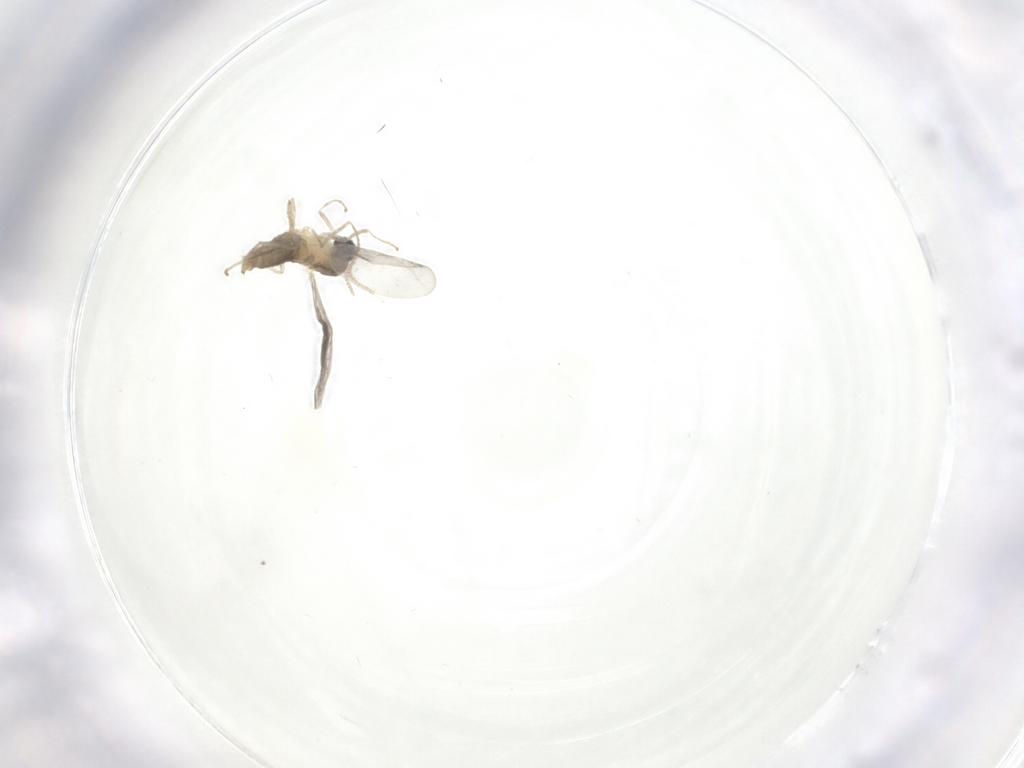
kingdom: Animalia
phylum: Arthropoda
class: Insecta
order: Diptera
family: Cecidomyiidae
